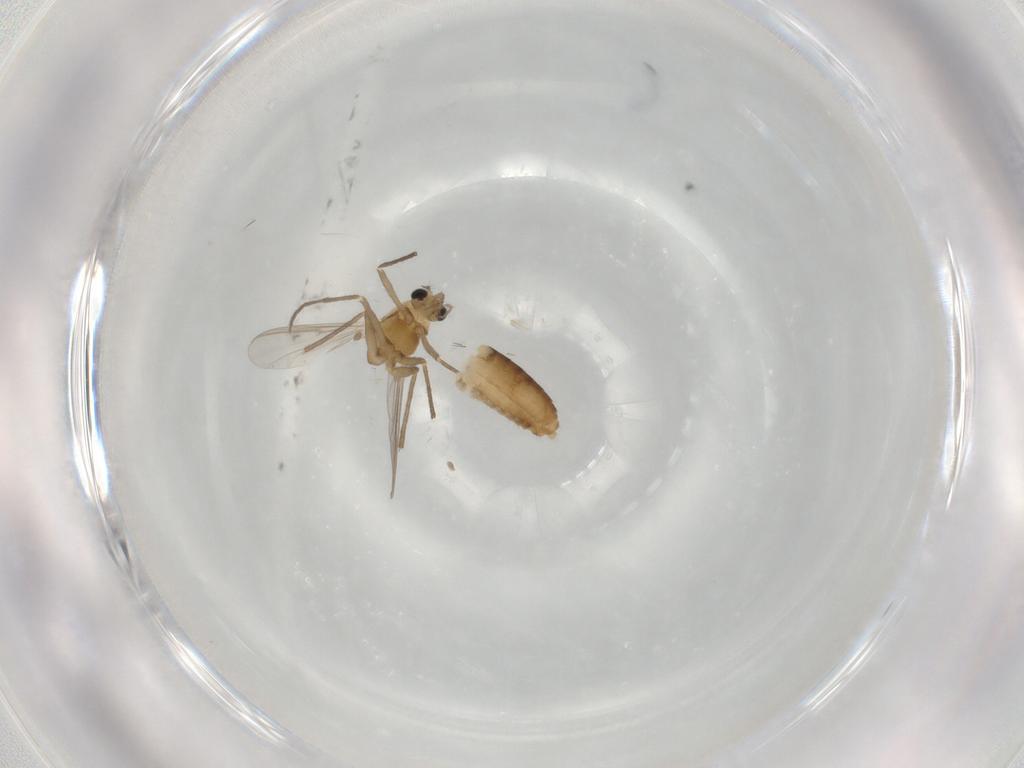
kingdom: Animalia
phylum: Arthropoda
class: Insecta
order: Diptera
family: Chironomidae
